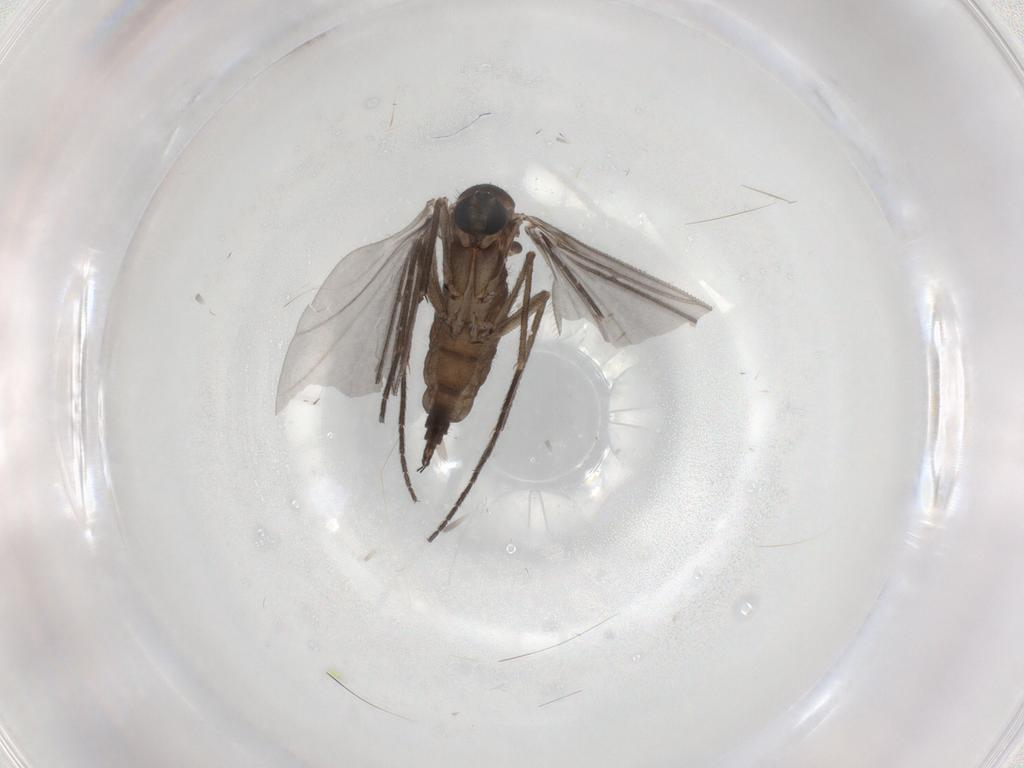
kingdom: Animalia
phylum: Arthropoda
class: Insecta
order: Diptera
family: Sciaridae
